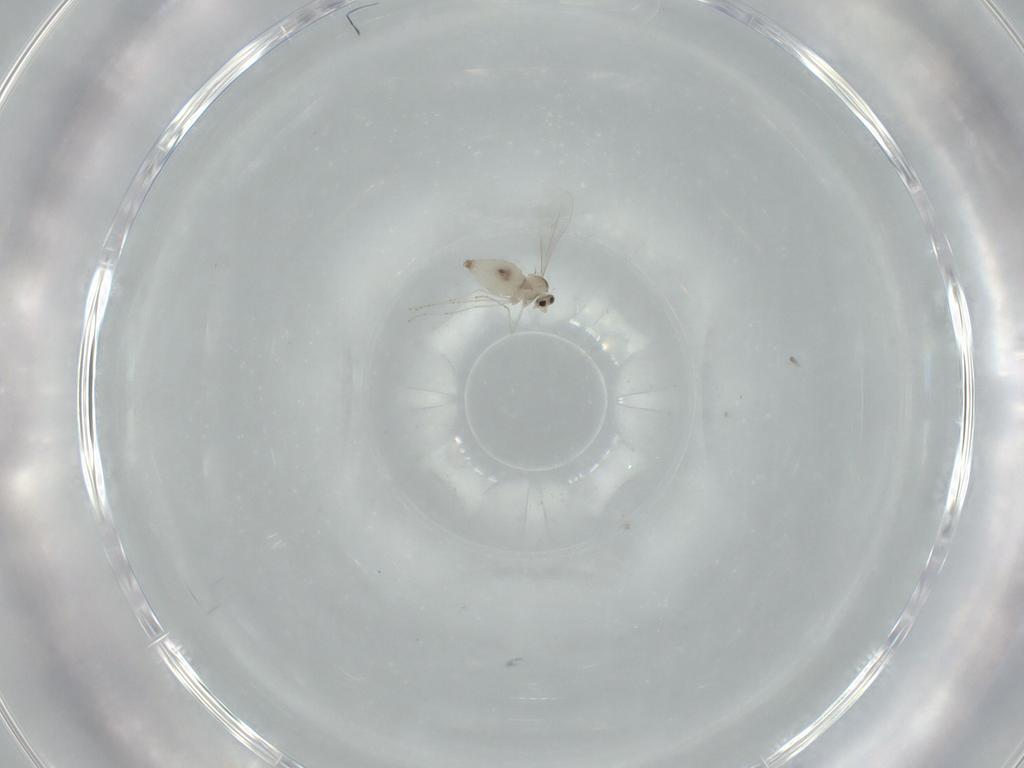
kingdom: Animalia
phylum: Arthropoda
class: Insecta
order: Diptera
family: Cecidomyiidae
